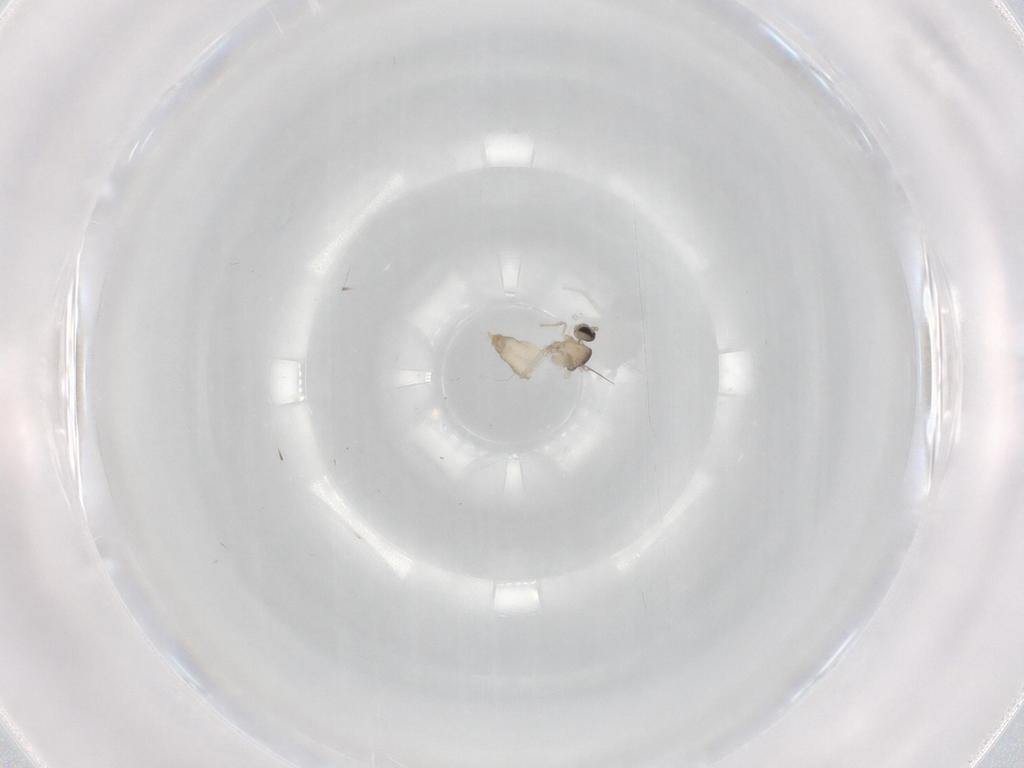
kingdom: Animalia
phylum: Arthropoda
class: Insecta
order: Diptera
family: Cecidomyiidae
